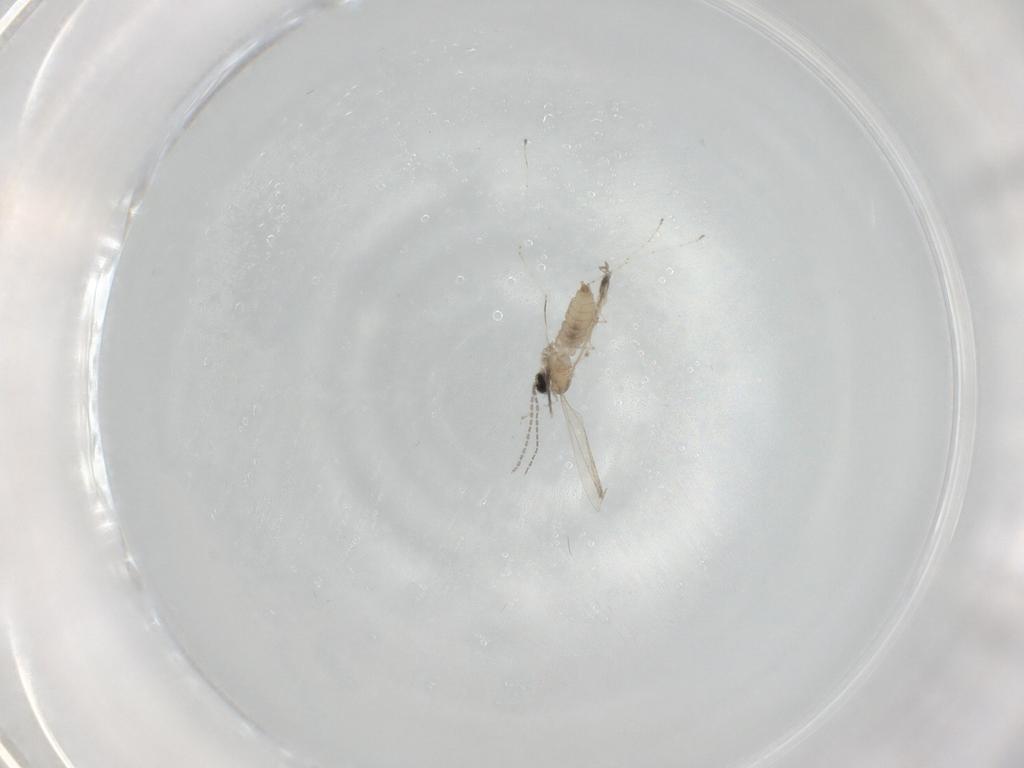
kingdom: Animalia
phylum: Arthropoda
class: Insecta
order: Diptera
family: Cecidomyiidae
